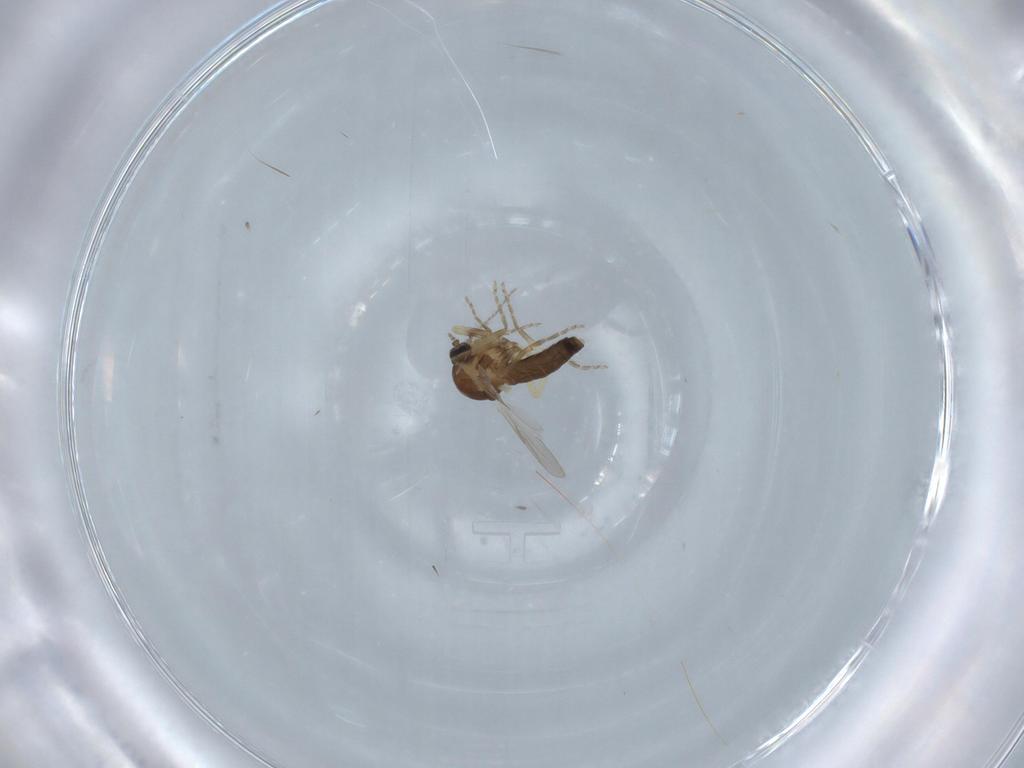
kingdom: Animalia
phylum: Arthropoda
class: Insecta
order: Diptera
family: Ceratopogonidae
